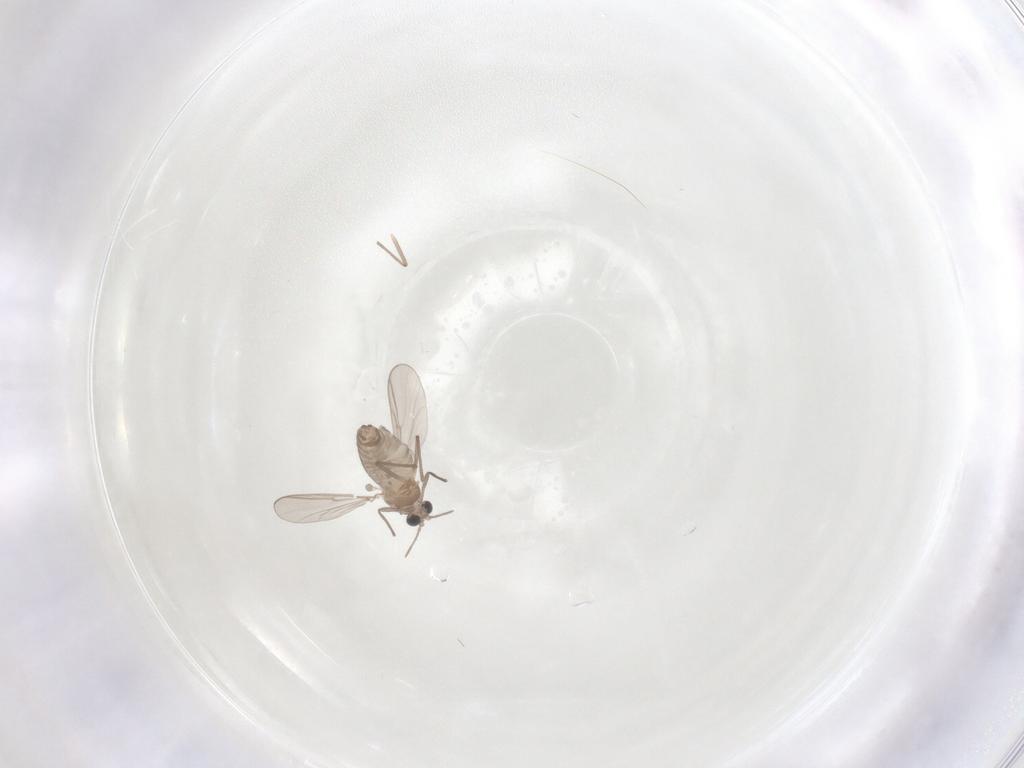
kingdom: Animalia
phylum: Arthropoda
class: Insecta
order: Diptera
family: Chironomidae
